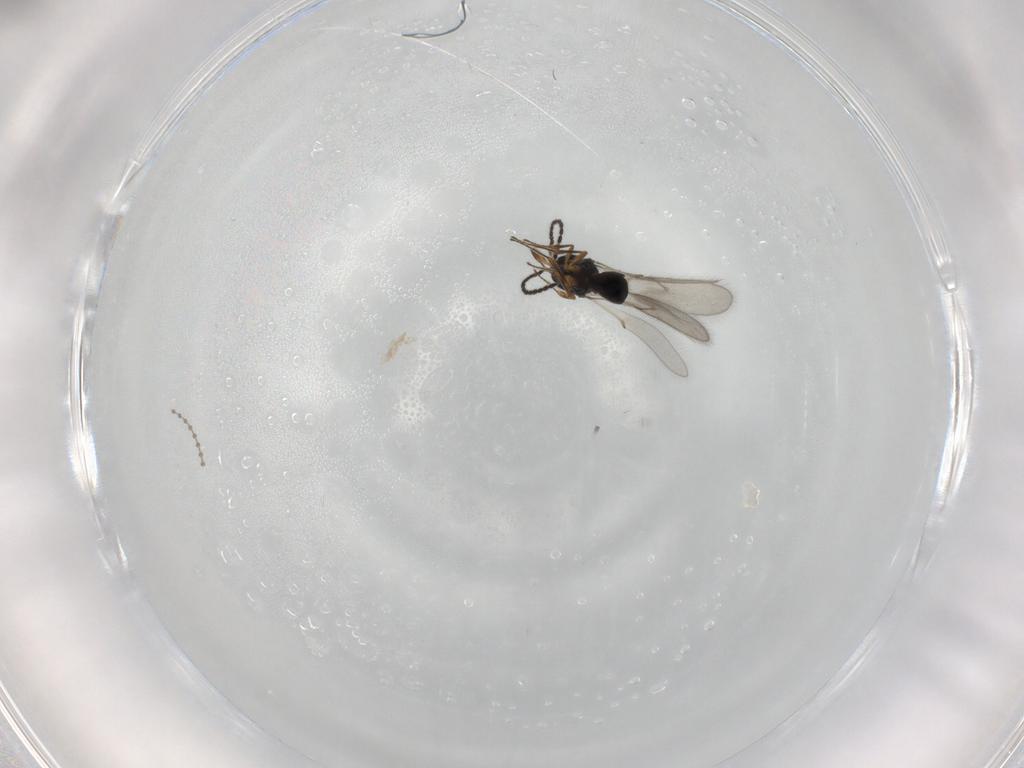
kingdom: Animalia
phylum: Arthropoda
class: Insecta
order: Hymenoptera
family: Scelionidae
